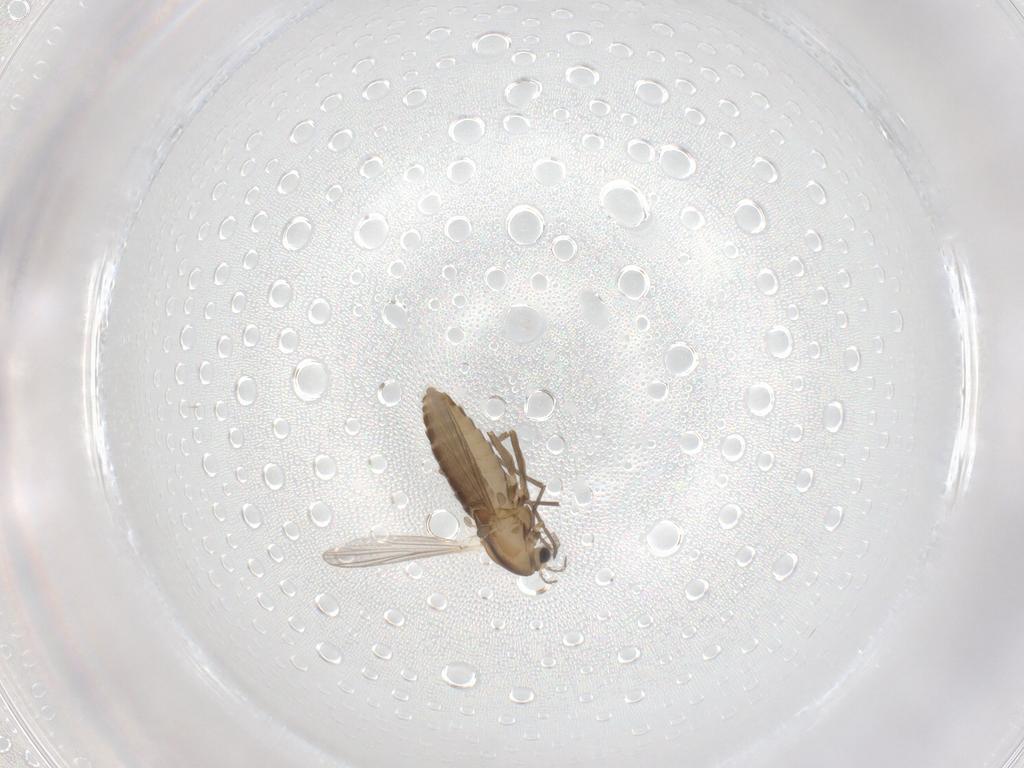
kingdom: Animalia
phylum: Arthropoda
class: Insecta
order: Diptera
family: Chironomidae
